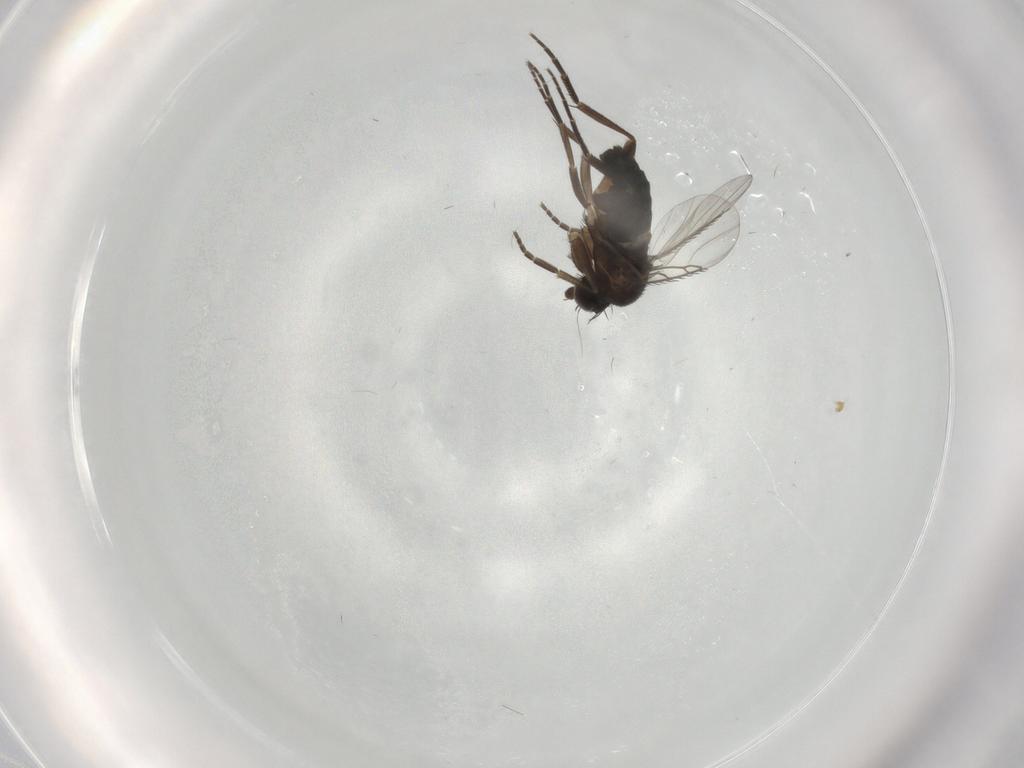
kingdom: Animalia
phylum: Arthropoda
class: Insecta
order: Diptera
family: Phoridae
